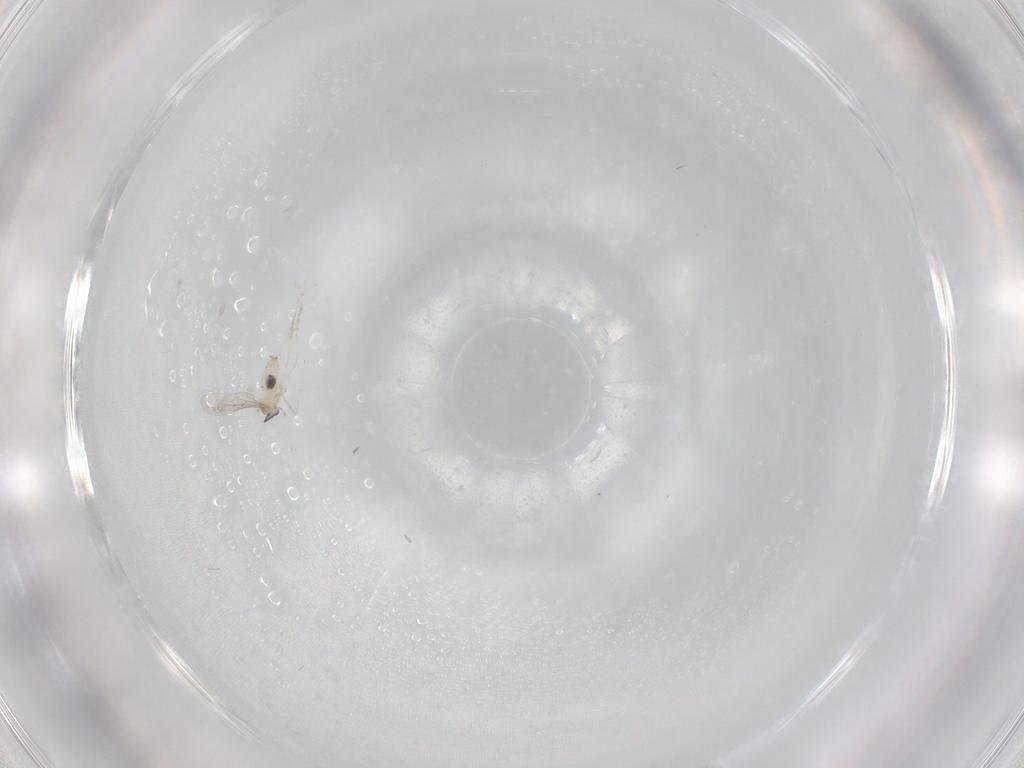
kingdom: Animalia
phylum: Arthropoda
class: Insecta
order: Diptera
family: Cecidomyiidae
